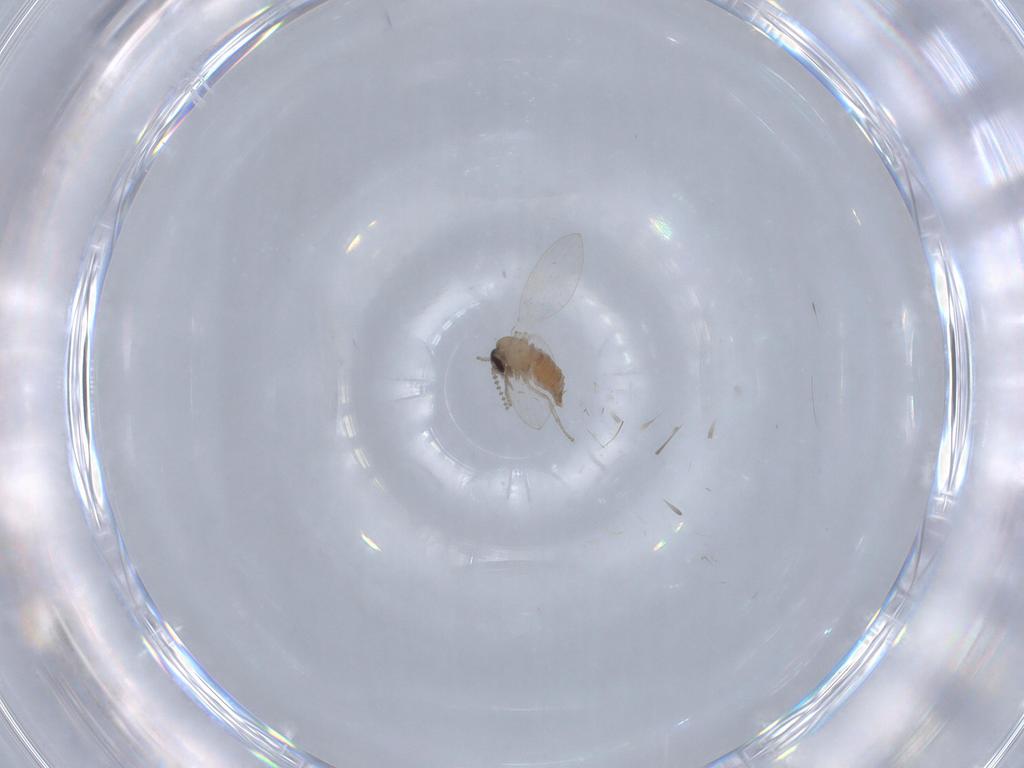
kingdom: Animalia
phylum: Arthropoda
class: Insecta
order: Diptera
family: Psychodidae
